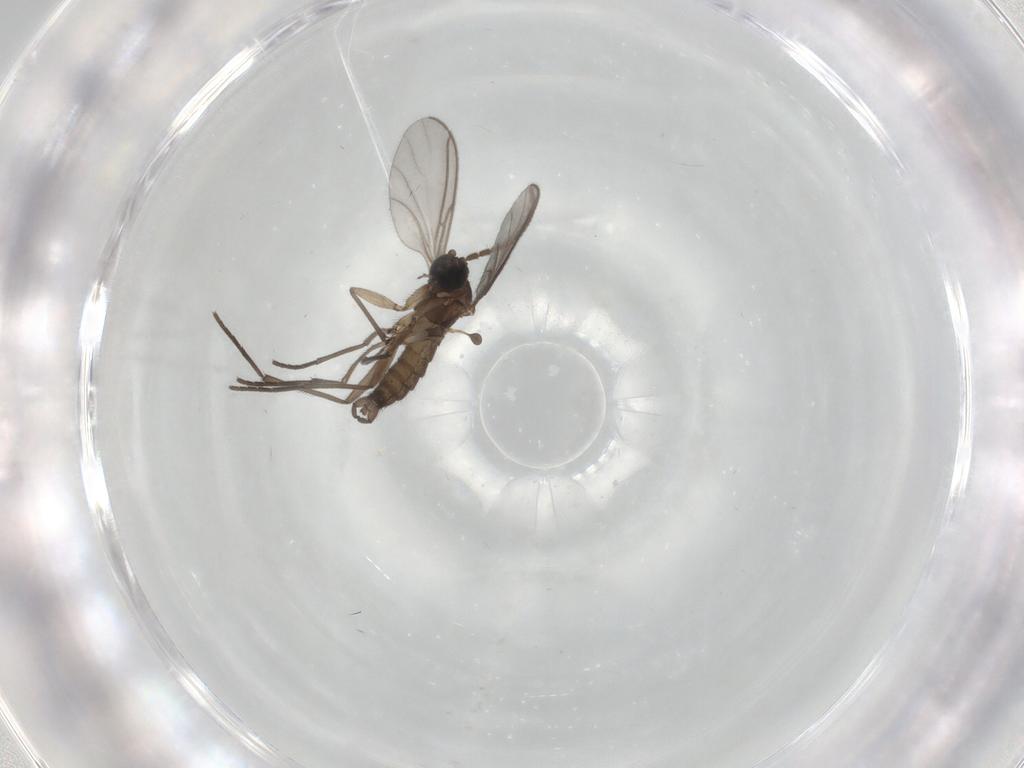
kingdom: Animalia
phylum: Arthropoda
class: Insecta
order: Diptera
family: Sciaridae
